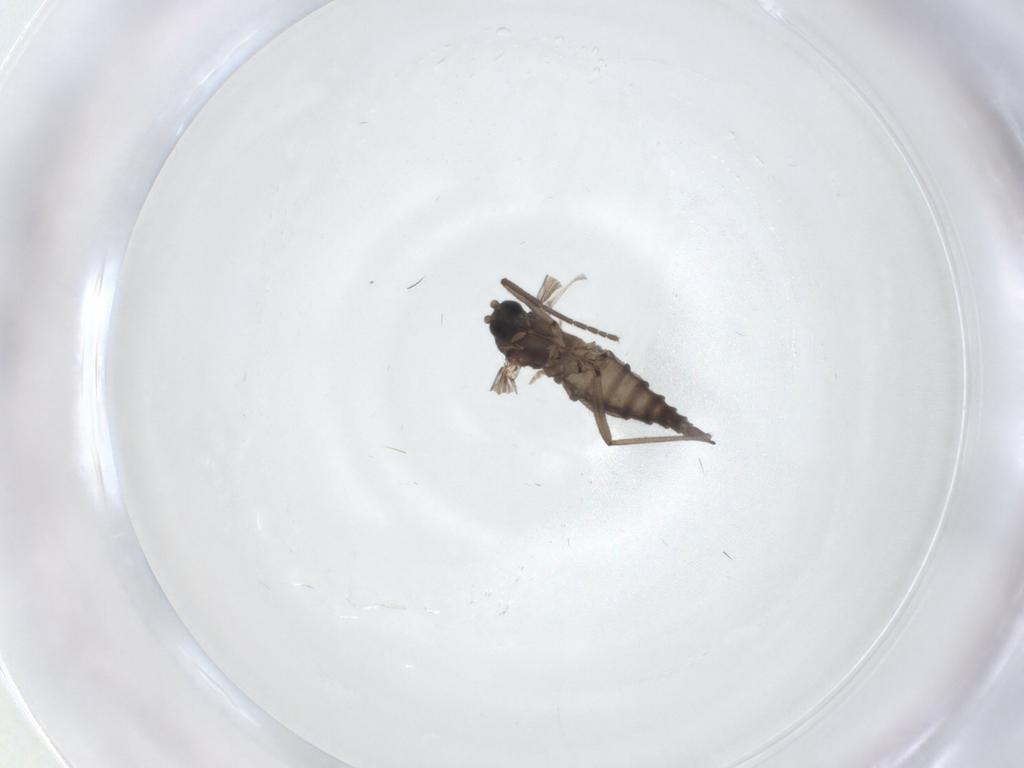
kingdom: Animalia
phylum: Arthropoda
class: Insecta
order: Diptera
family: Sciaridae
